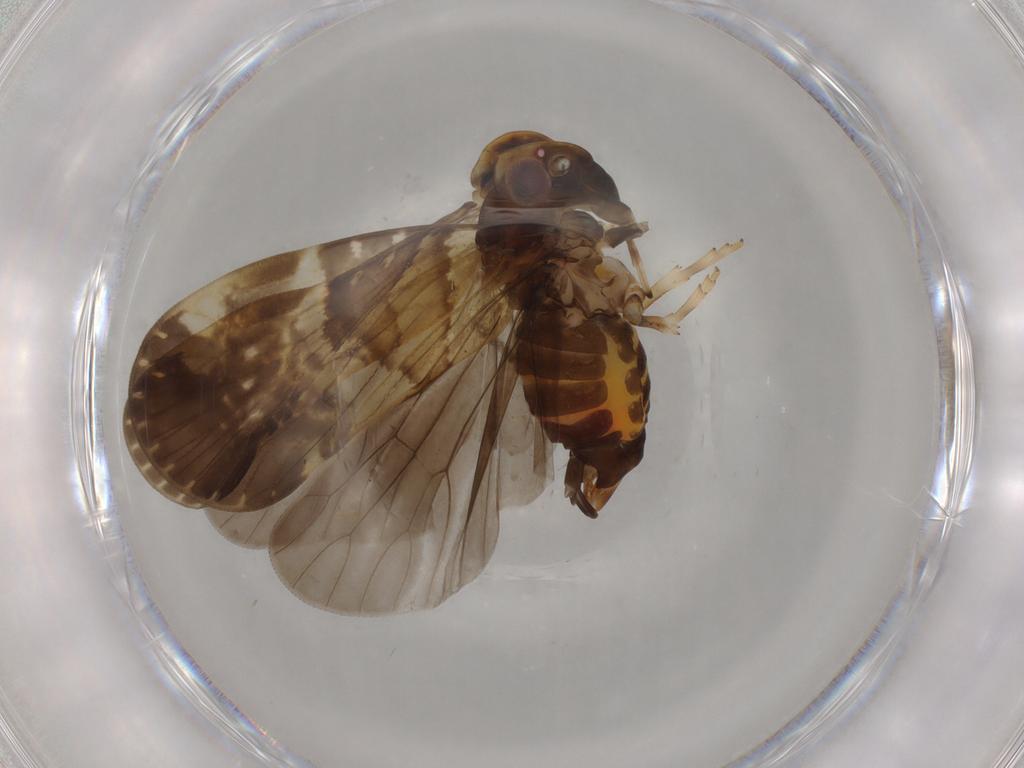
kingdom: Animalia
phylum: Arthropoda
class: Insecta
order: Hemiptera
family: Cixiidae
